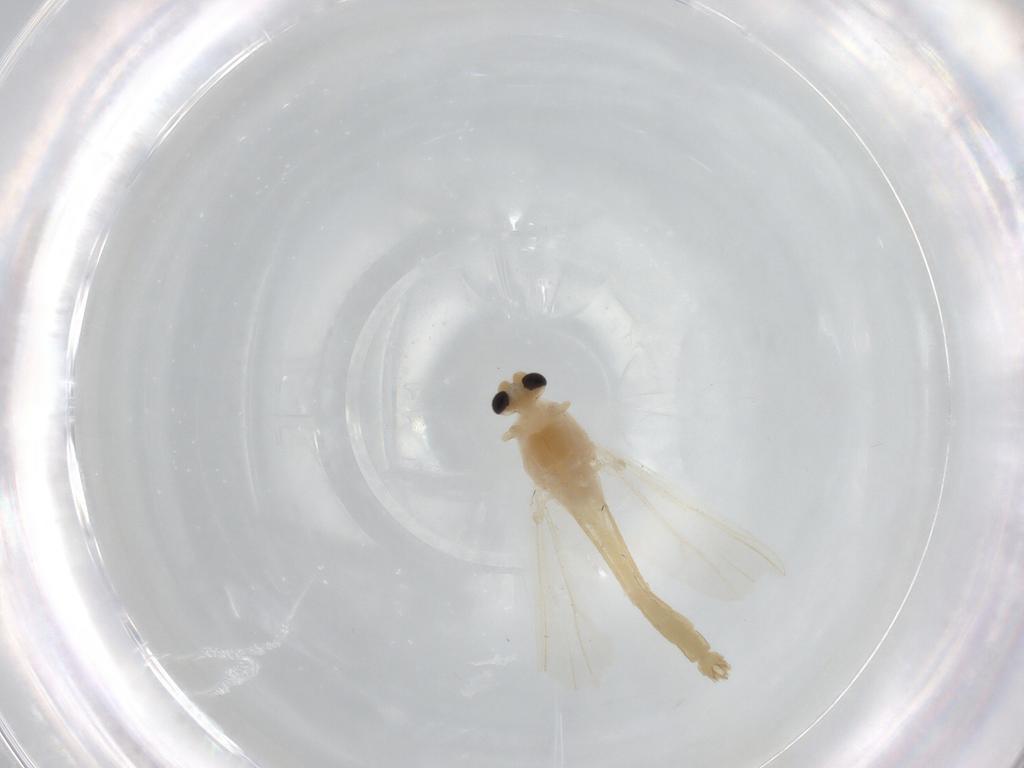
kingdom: Animalia
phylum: Arthropoda
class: Insecta
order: Diptera
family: Chironomidae
